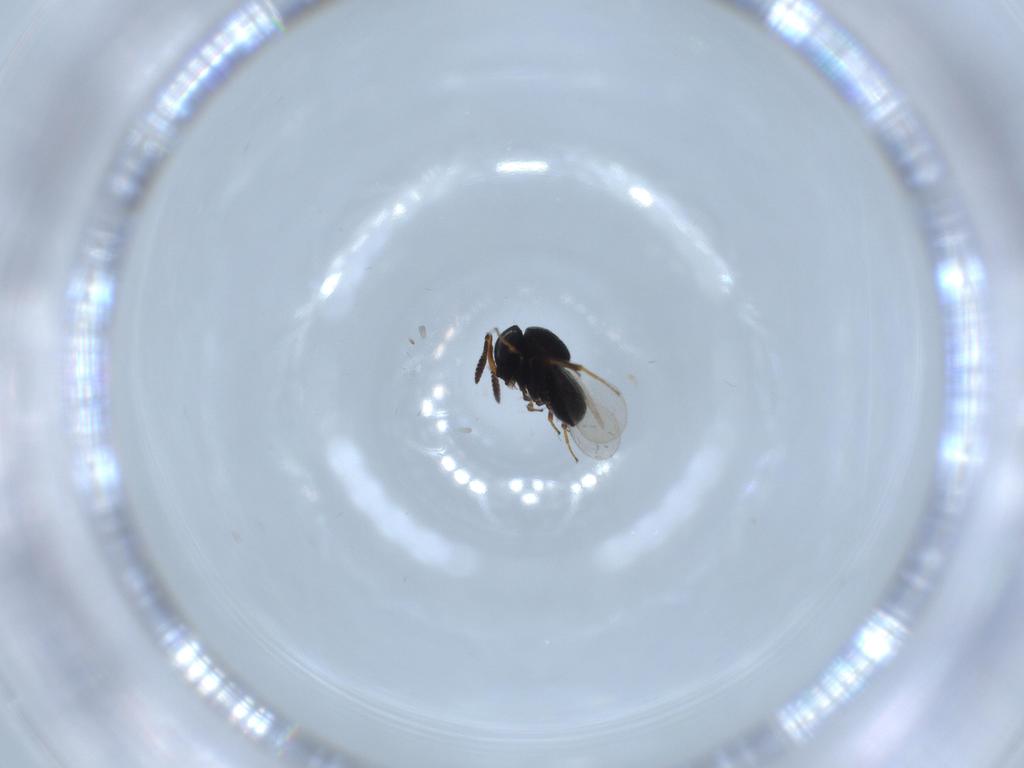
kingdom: Animalia
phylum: Arthropoda
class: Insecta
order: Hymenoptera
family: Scelionidae
